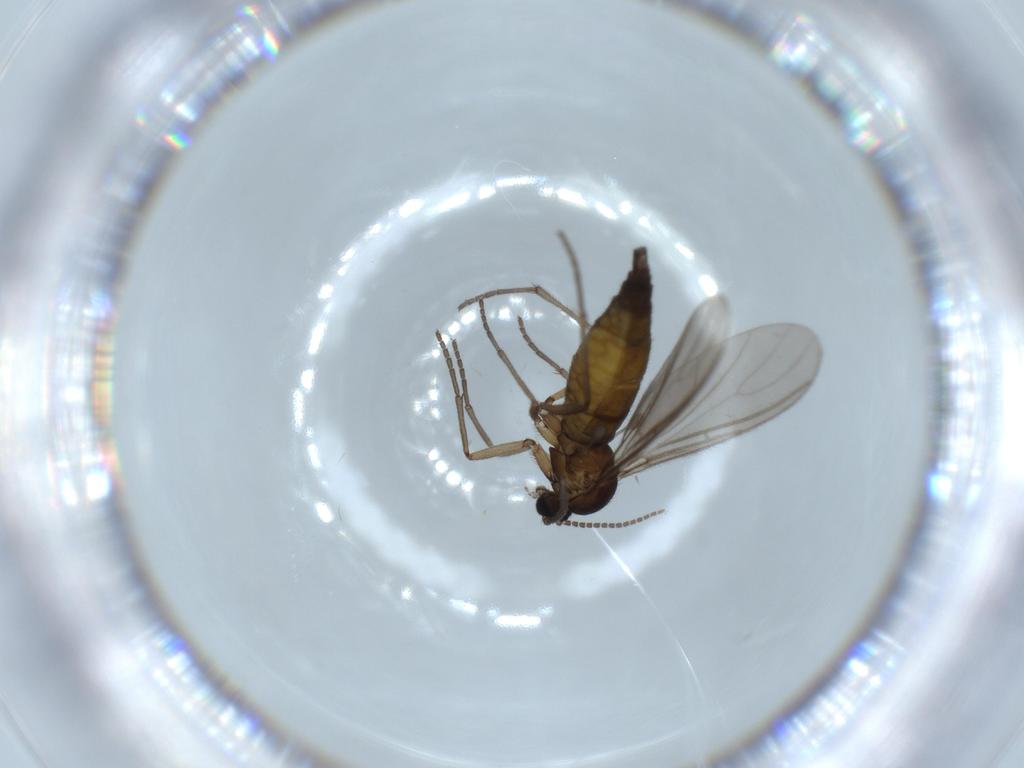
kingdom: Animalia
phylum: Arthropoda
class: Insecta
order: Diptera
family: Sciaridae
